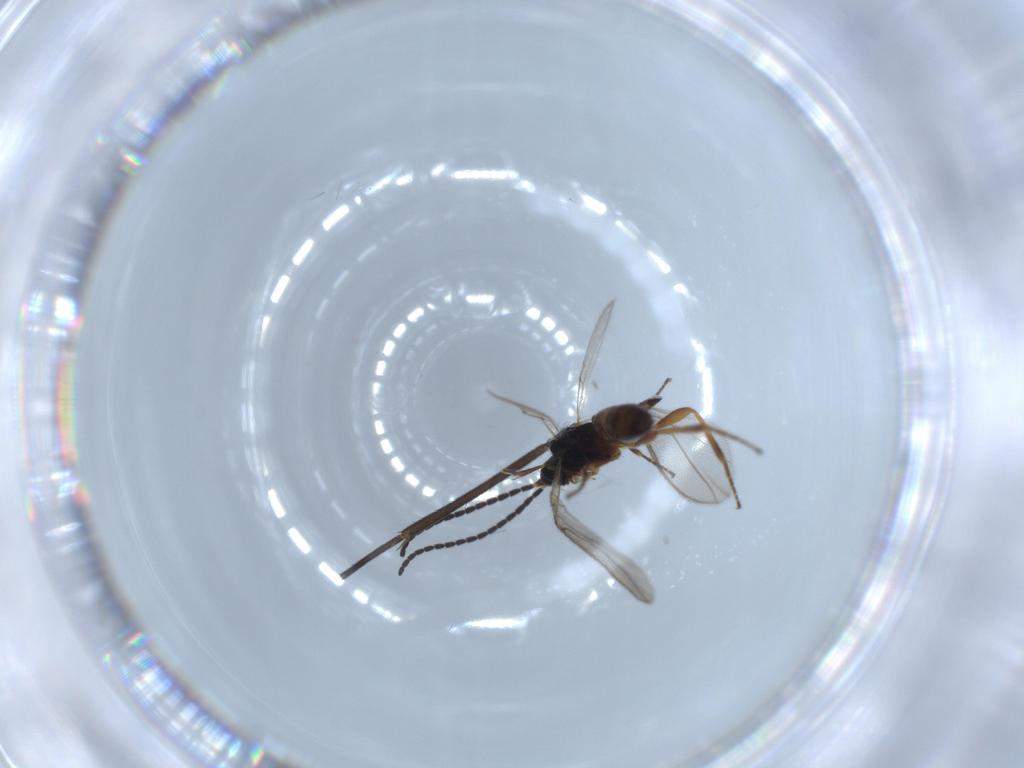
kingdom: Animalia
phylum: Arthropoda
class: Insecta
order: Hymenoptera
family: Braconidae
